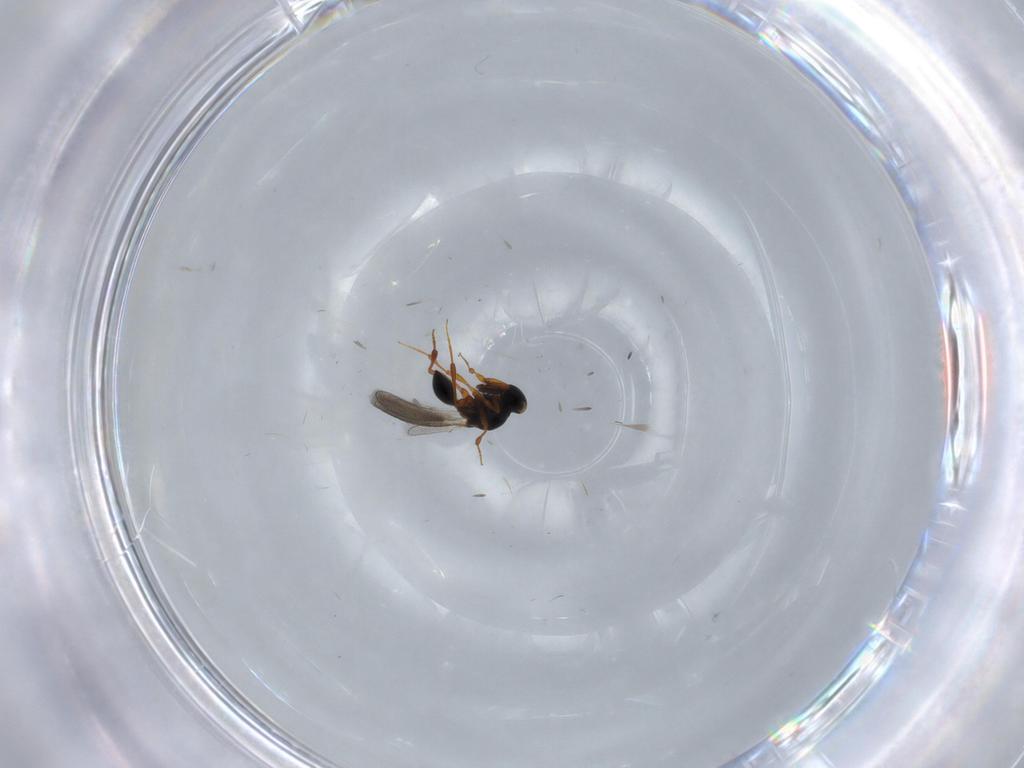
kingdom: Animalia
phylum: Arthropoda
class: Insecta
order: Hymenoptera
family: Platygastridae
